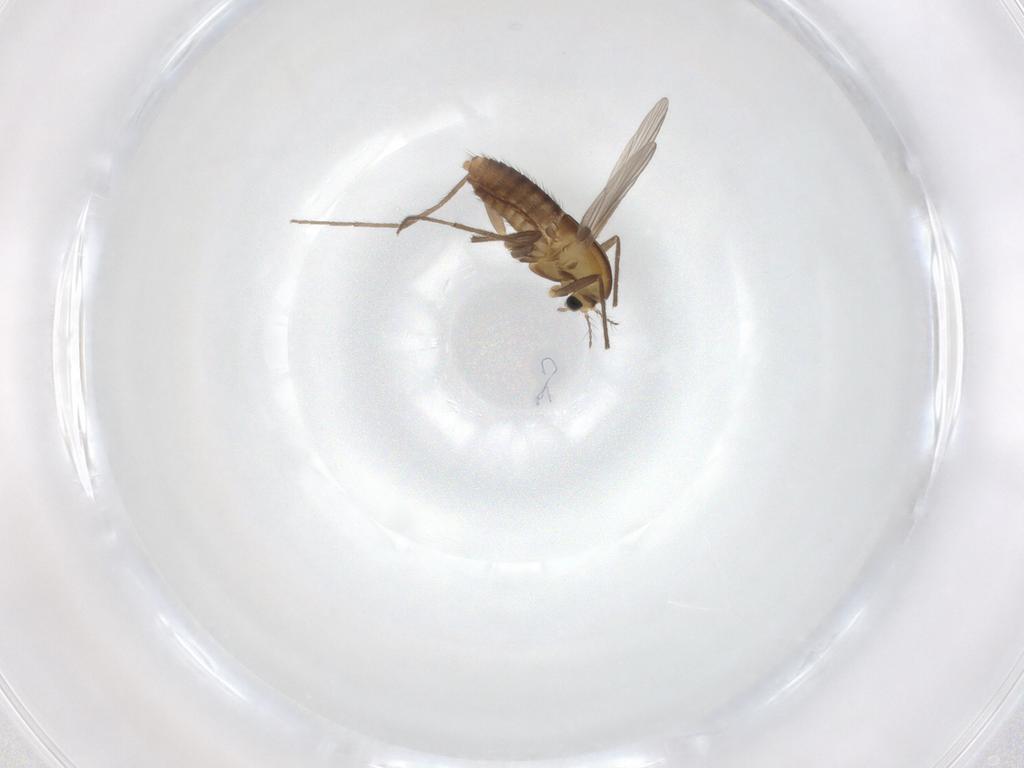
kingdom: Animalia
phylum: Arthropoda
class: Insecta
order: Diptera
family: Chironomidae
